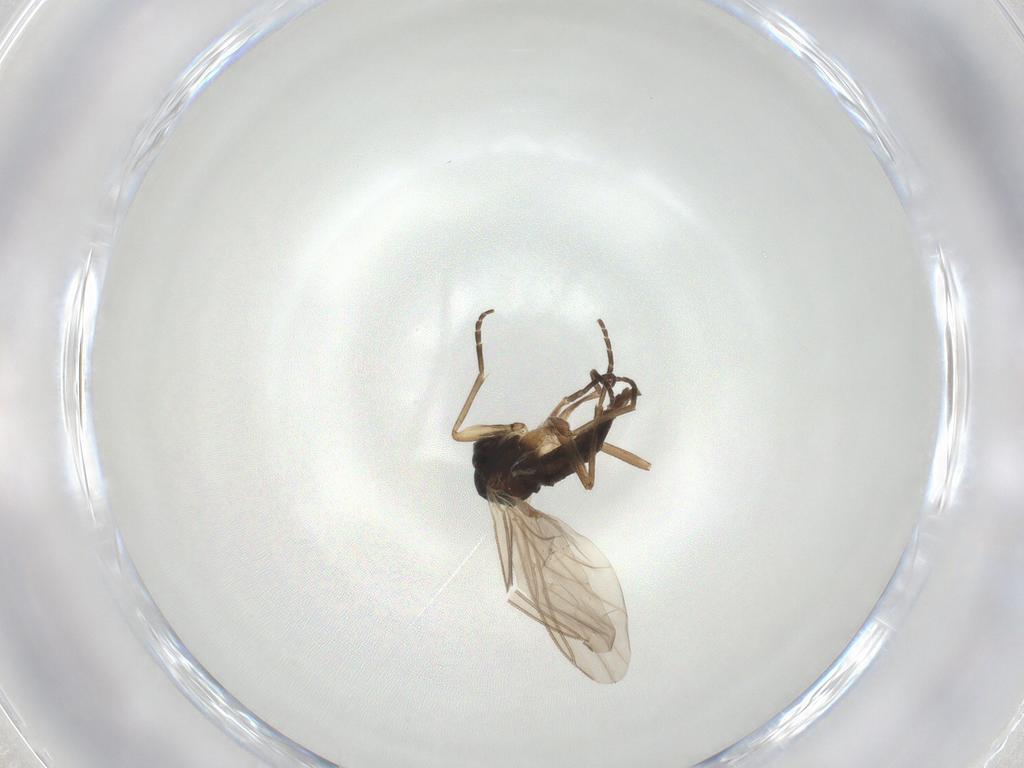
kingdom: Animalia
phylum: Arthropoda
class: Insecta
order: Diptera
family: Sciaridae
